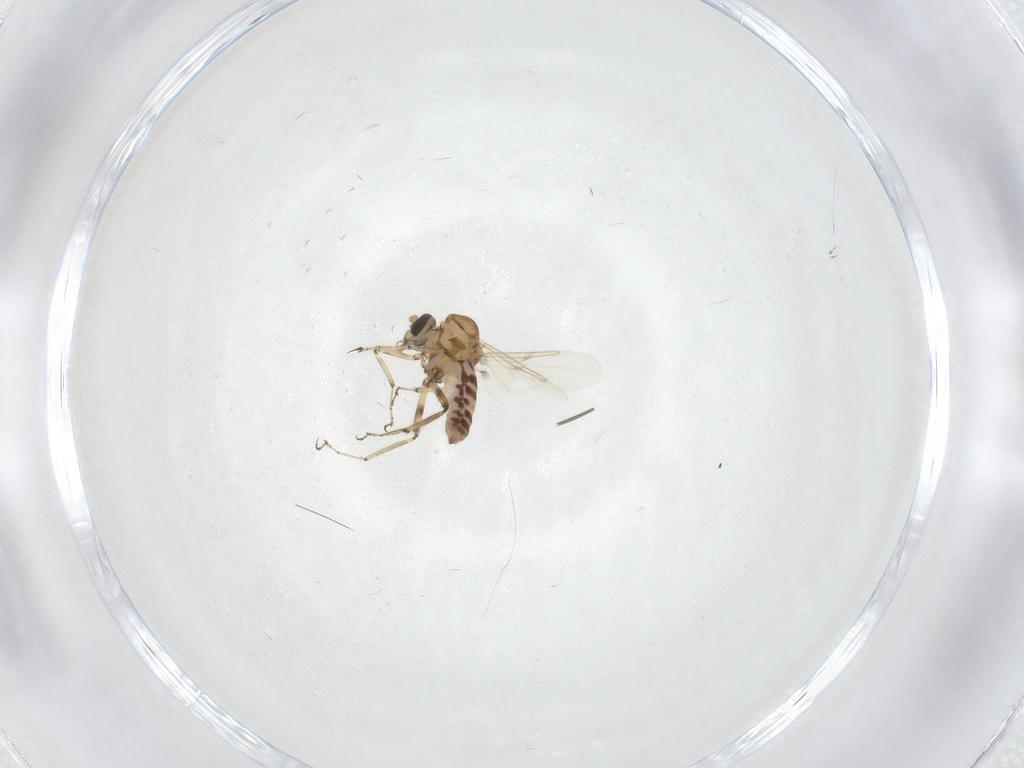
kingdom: Animalia
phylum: Arthropoda
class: Insecta
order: Diptera
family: Ceratopogonidae
